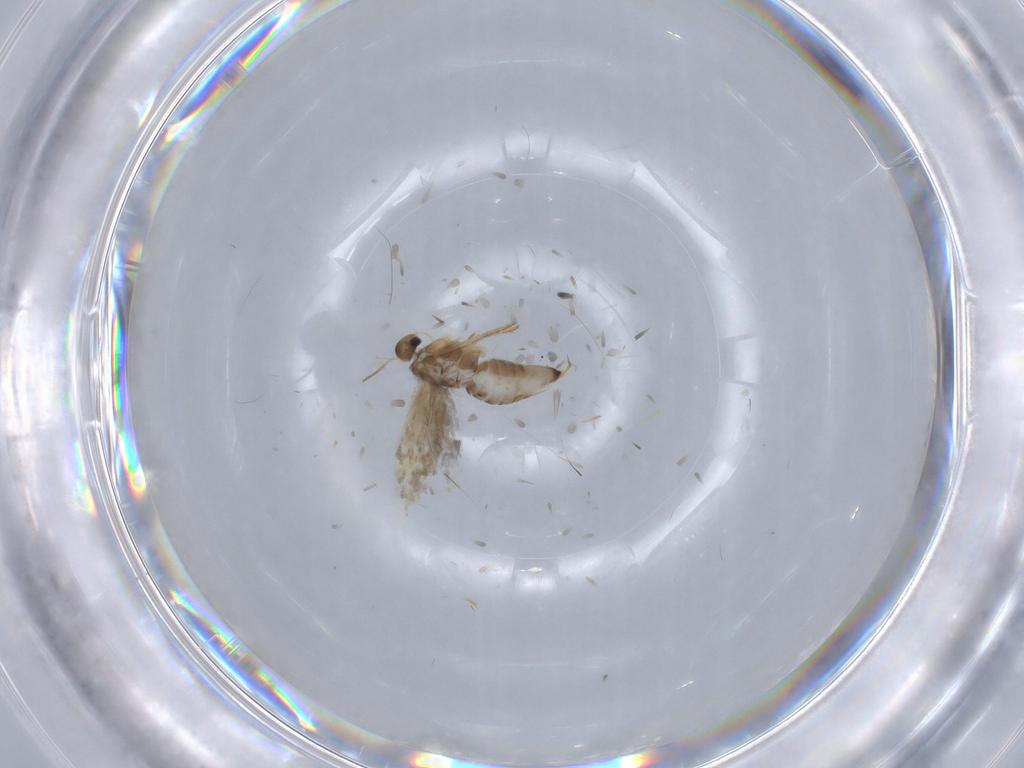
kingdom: Animalia
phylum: Arthropoda
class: Insecta
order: Lepidoptera
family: Heliozelidae
